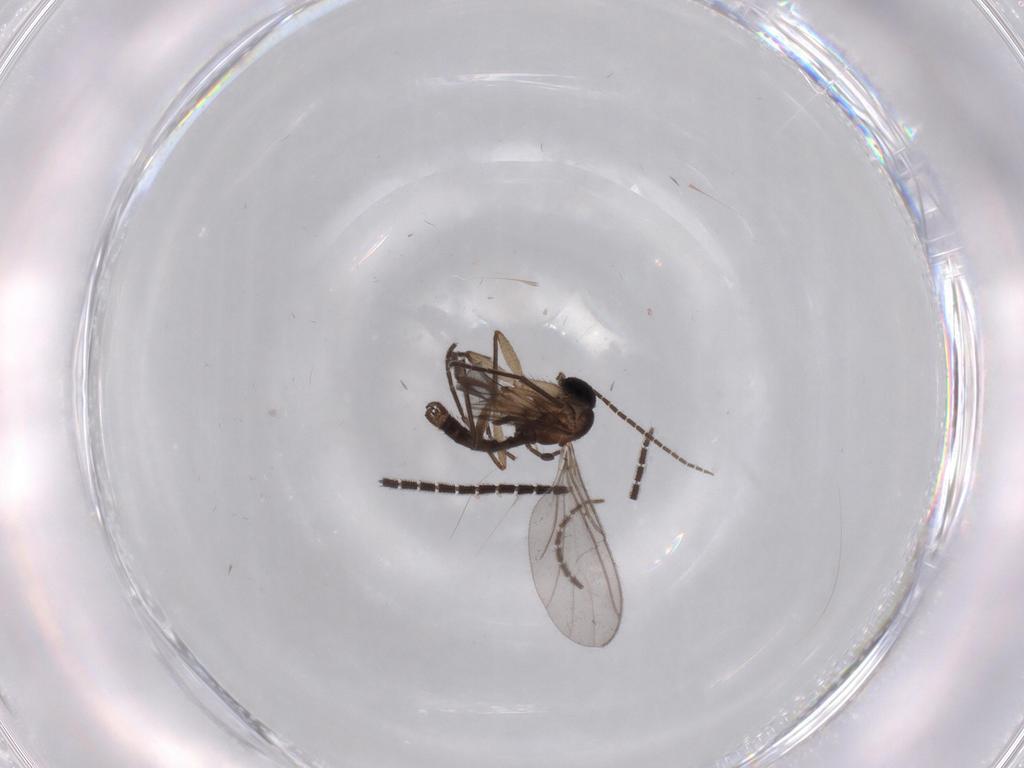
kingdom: Animalia
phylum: Arthropoda
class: Insecta
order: Diptera
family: Sciaridae
